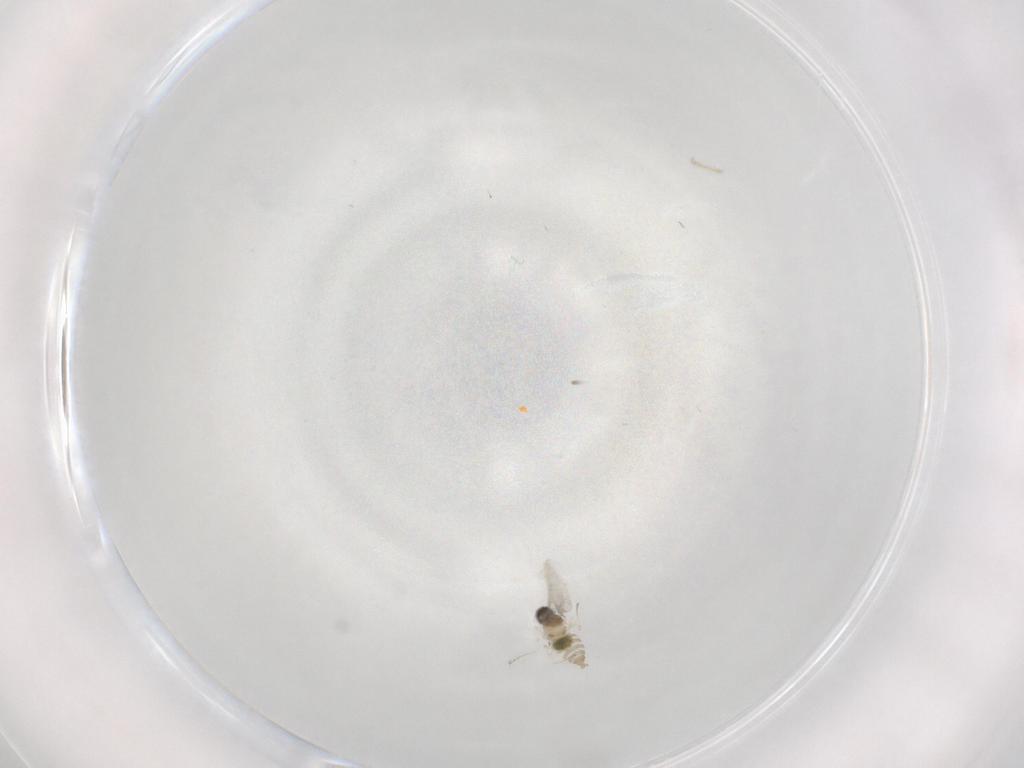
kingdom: Animalia
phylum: Arthropoda
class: Insecta
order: Diptera
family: Cecidomyiidae
